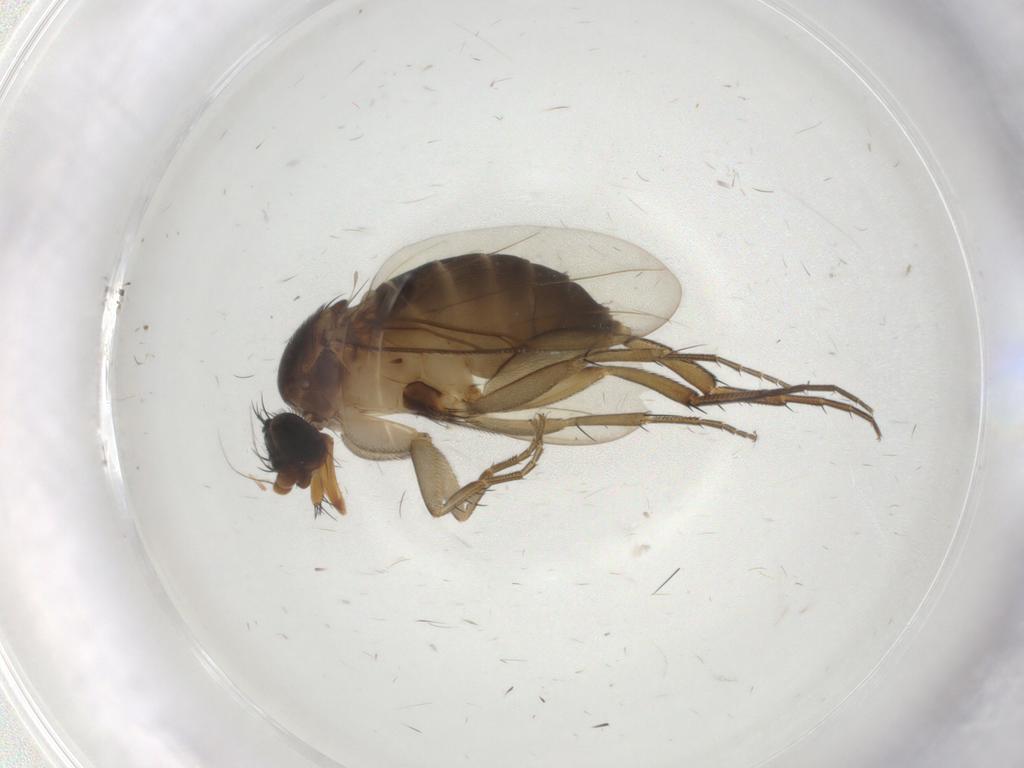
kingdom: Animalia
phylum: Arthropoda
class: Insecta
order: Diptera
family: Phoridae
